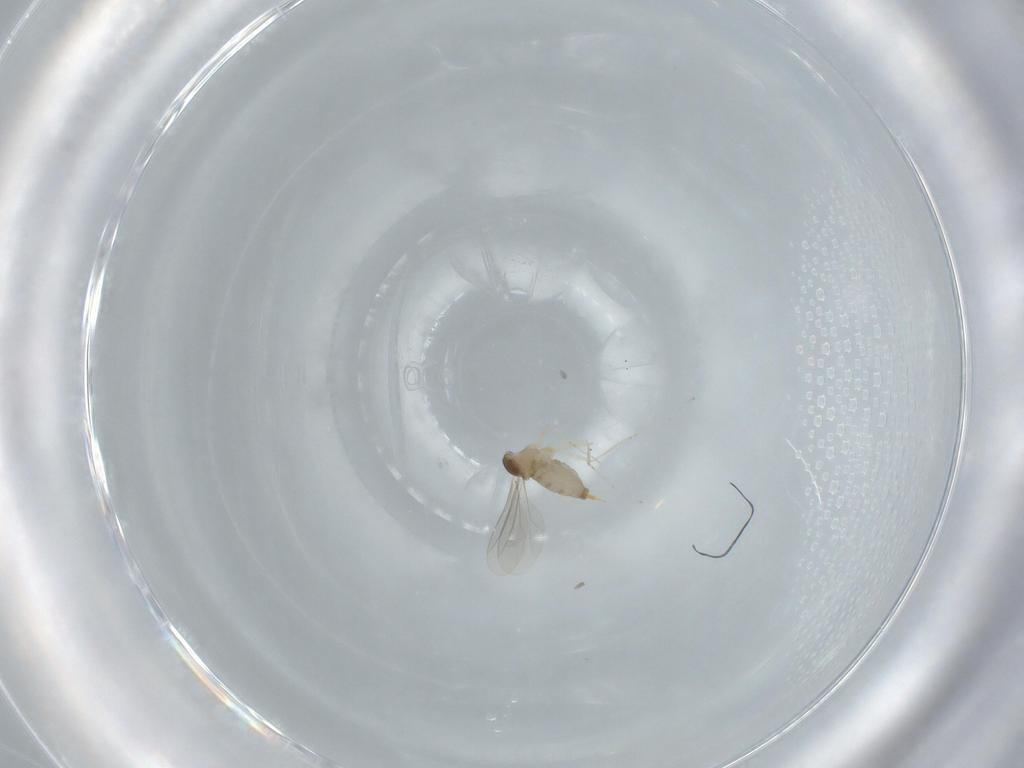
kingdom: Animalia
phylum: Arthropoda
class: Insecta
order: Diptera
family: Cecidomyiidae
